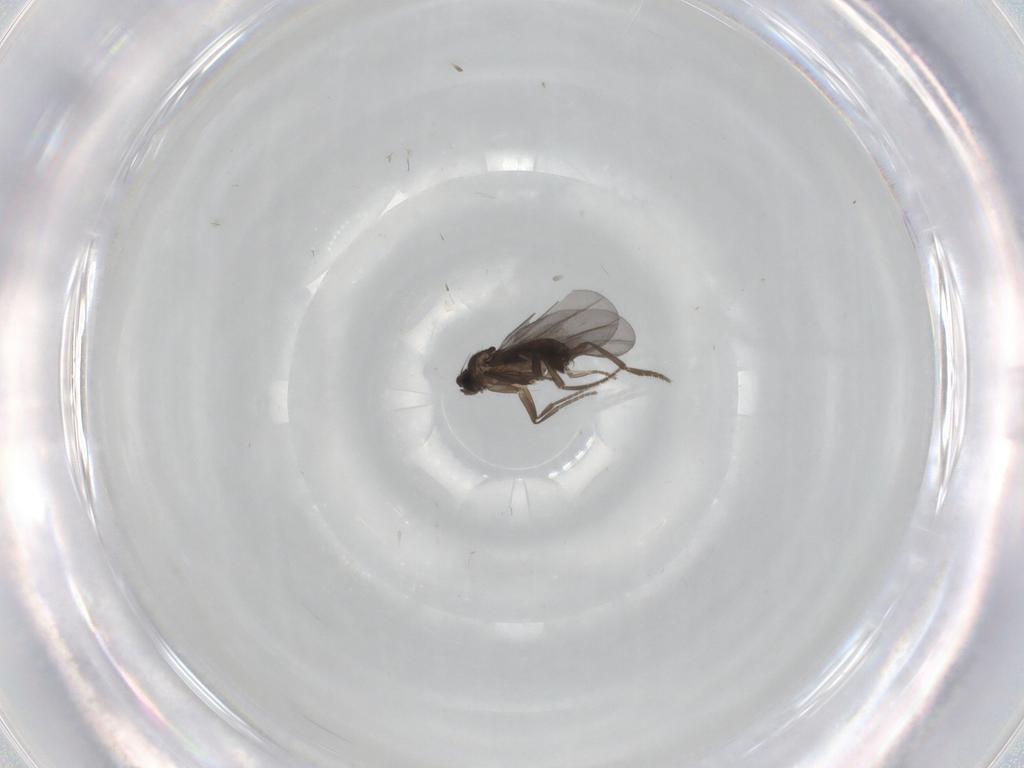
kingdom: Animalia
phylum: Arthropoda
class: Insecta
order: Diptera
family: Phoridae
